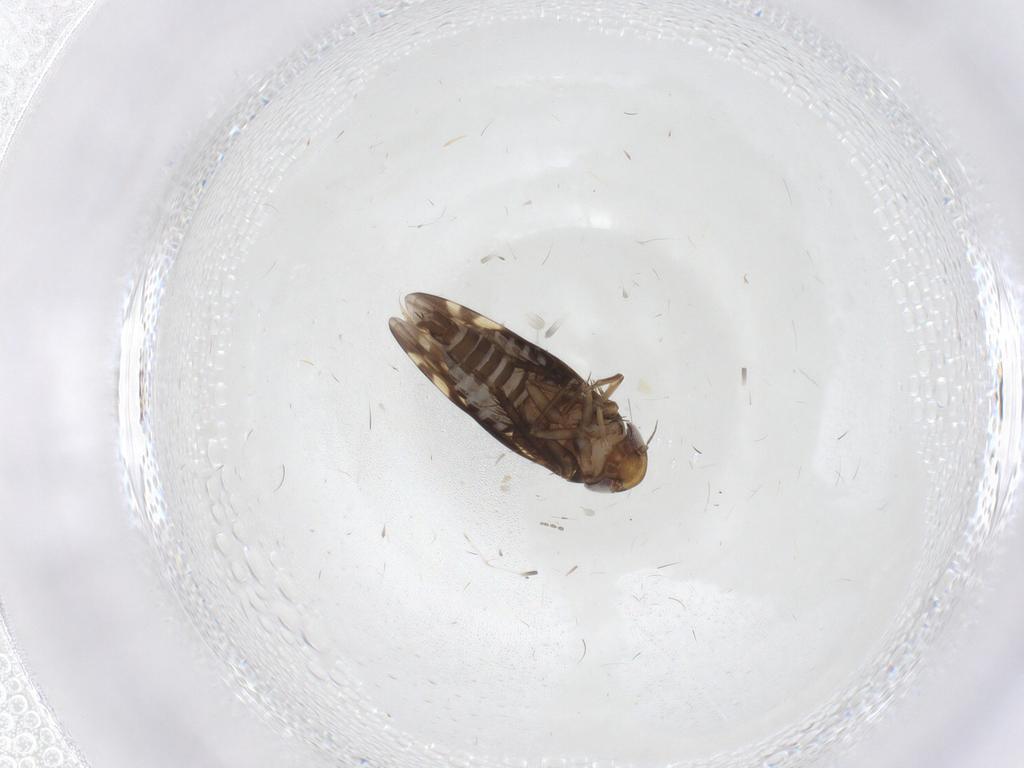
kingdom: Animalia
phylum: Arthropoda
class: Insecta
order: Hemiptera
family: Cicadellidae
